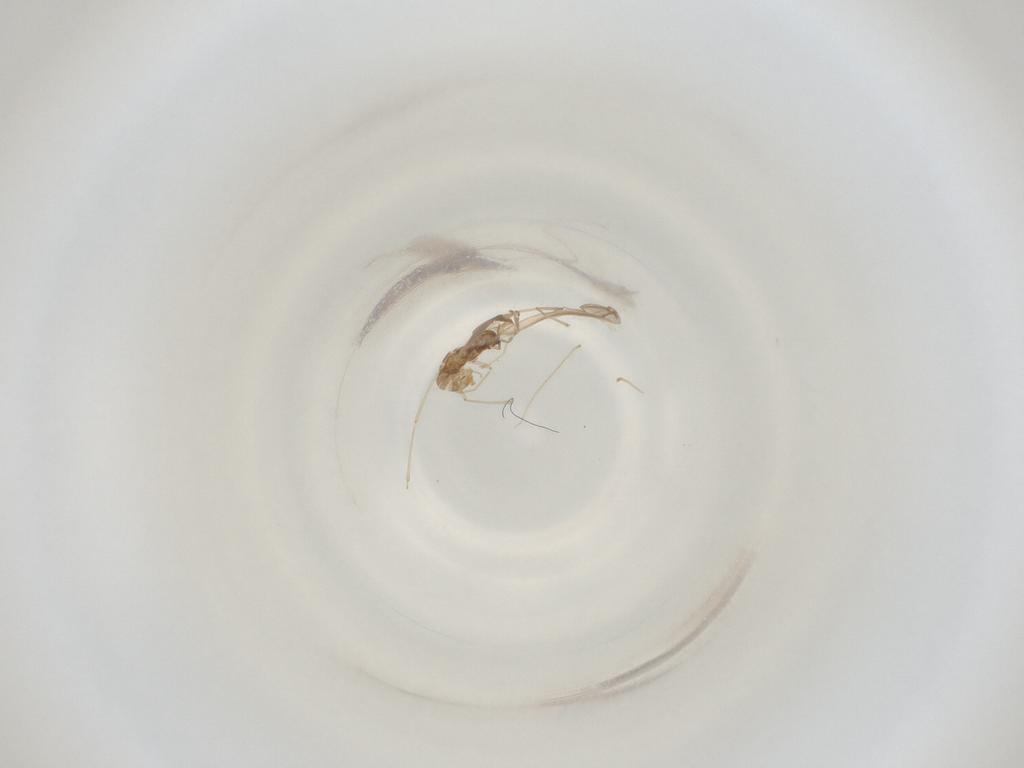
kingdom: Animalia
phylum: Arthropoda
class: Insecta
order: Diptera
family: Cecidomyiidae
